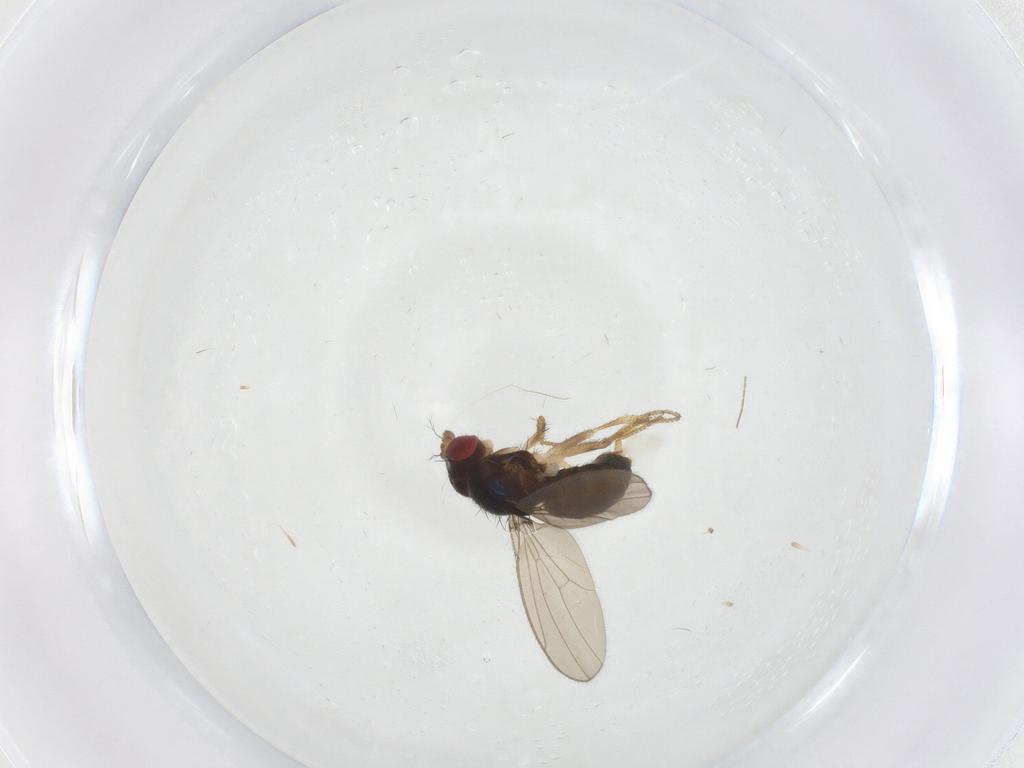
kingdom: Animalia
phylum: Arthropoda
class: Insecta
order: Diptera
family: Drosophilidae
